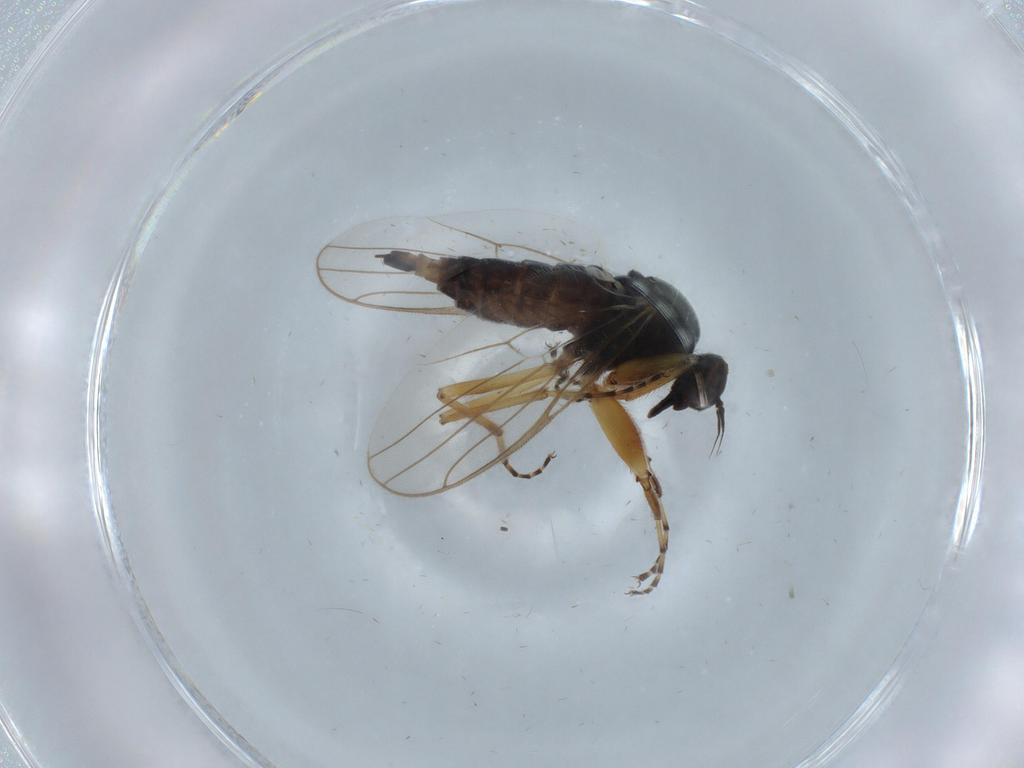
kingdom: Animalia
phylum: Arthropoda
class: Insecta
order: Diptera
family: Hybotidae
